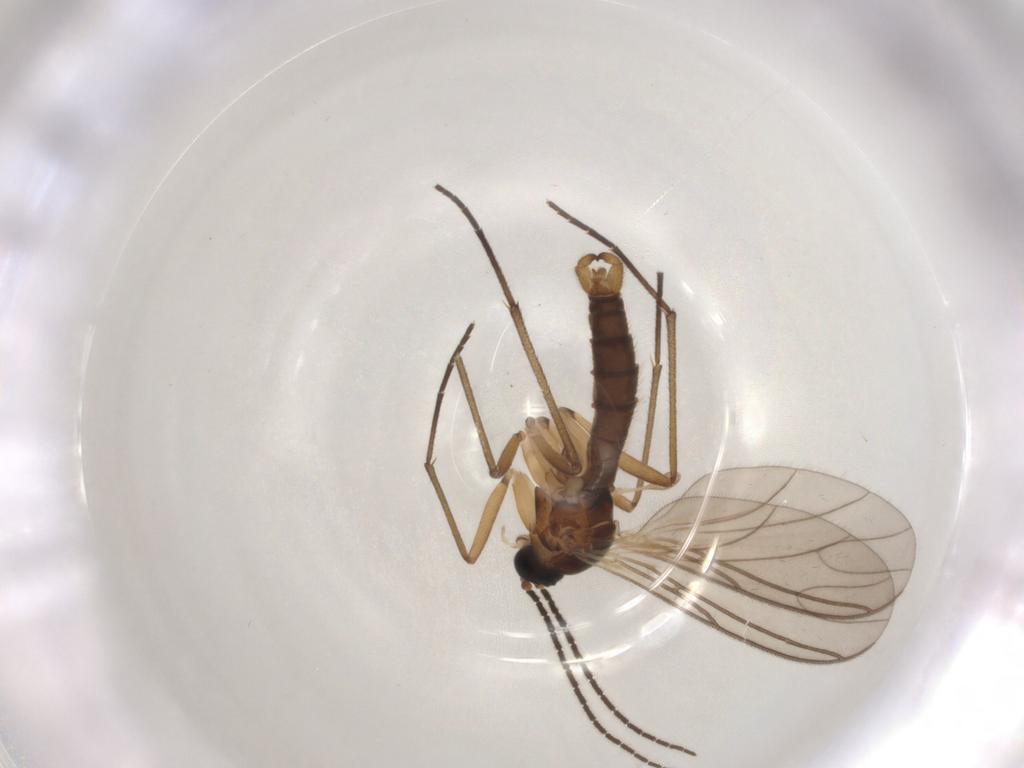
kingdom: Animalia
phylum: Arthropoda
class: Insecta
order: Diptera
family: Sciaridae
